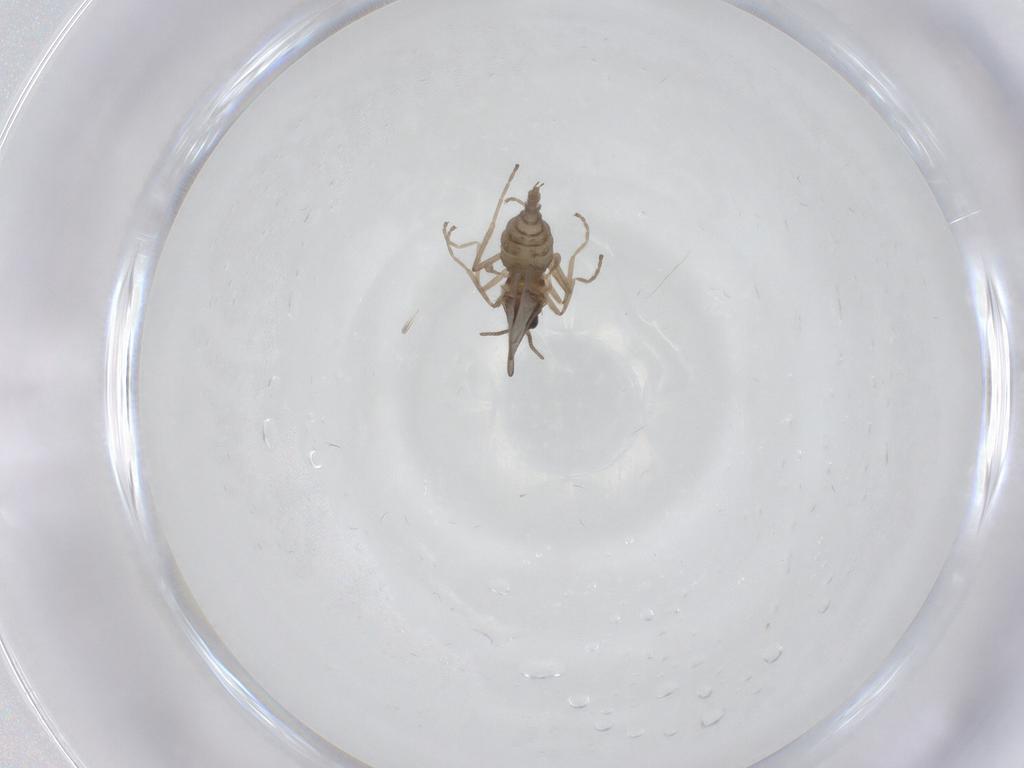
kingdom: Animalia
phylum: Arthropoda
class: Insecta
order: Diptera
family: Cecidomyiidae
